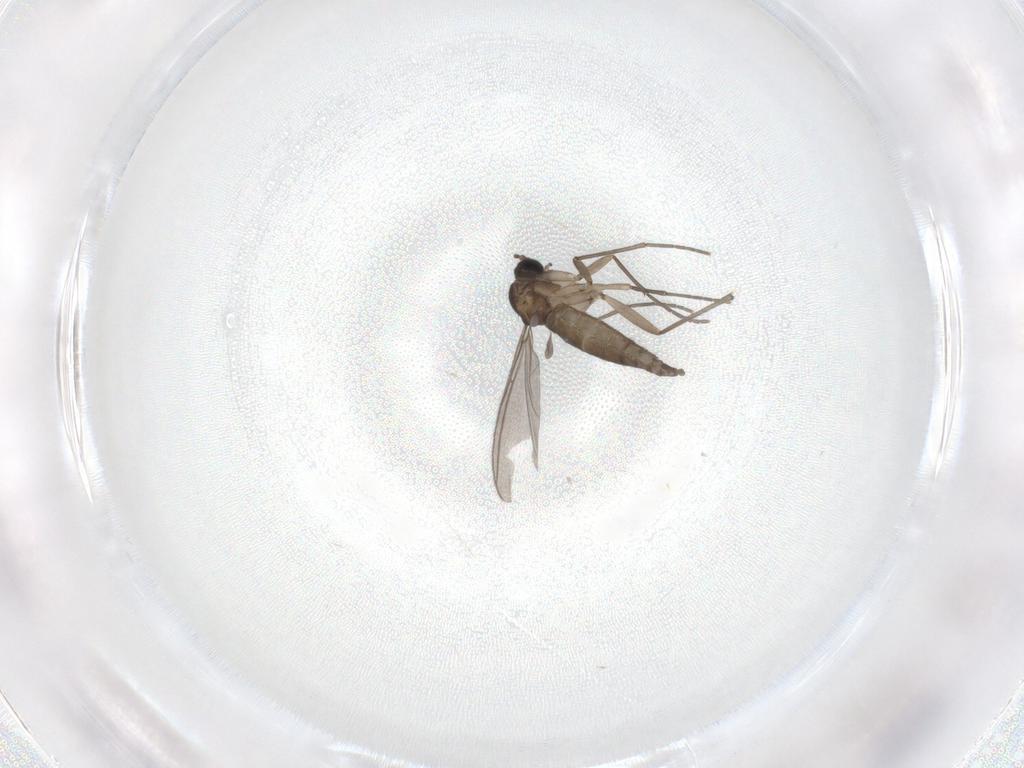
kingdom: Animalia
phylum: Arthropoda
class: Insecta
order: Diptera
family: Sciaridae
